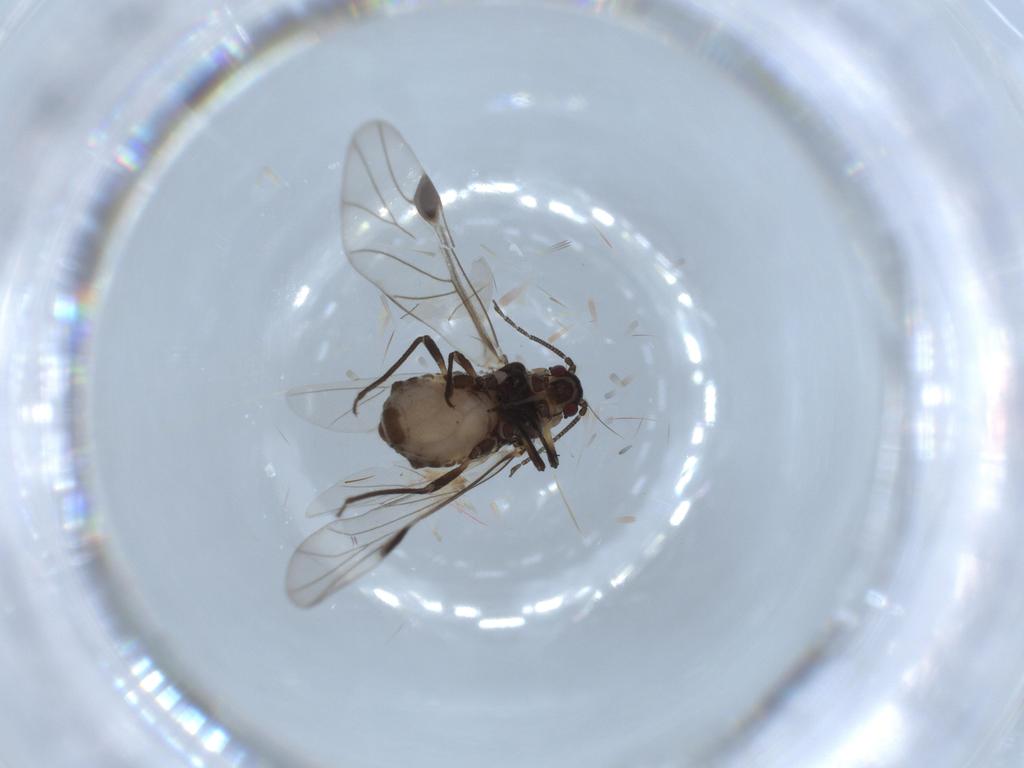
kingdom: Animalia
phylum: Arthropoda
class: Insecta
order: Hemiptera
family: Aphididae
